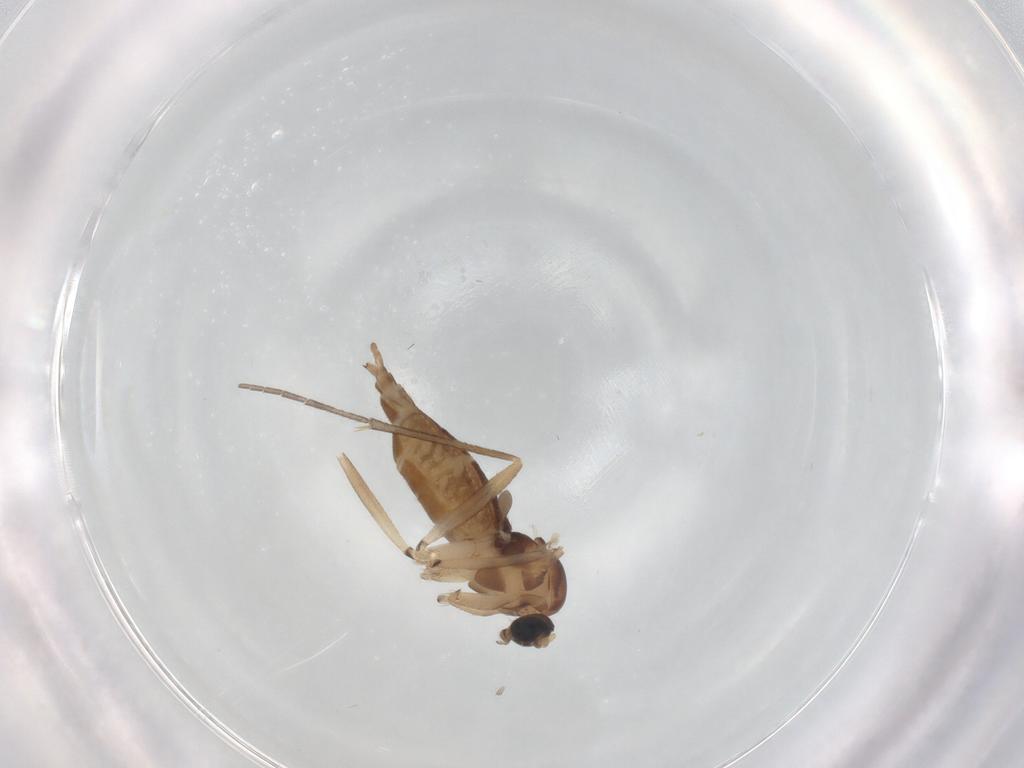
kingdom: Animalia
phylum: Arthropoda
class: Insecta
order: Diptera
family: Sciaridae
